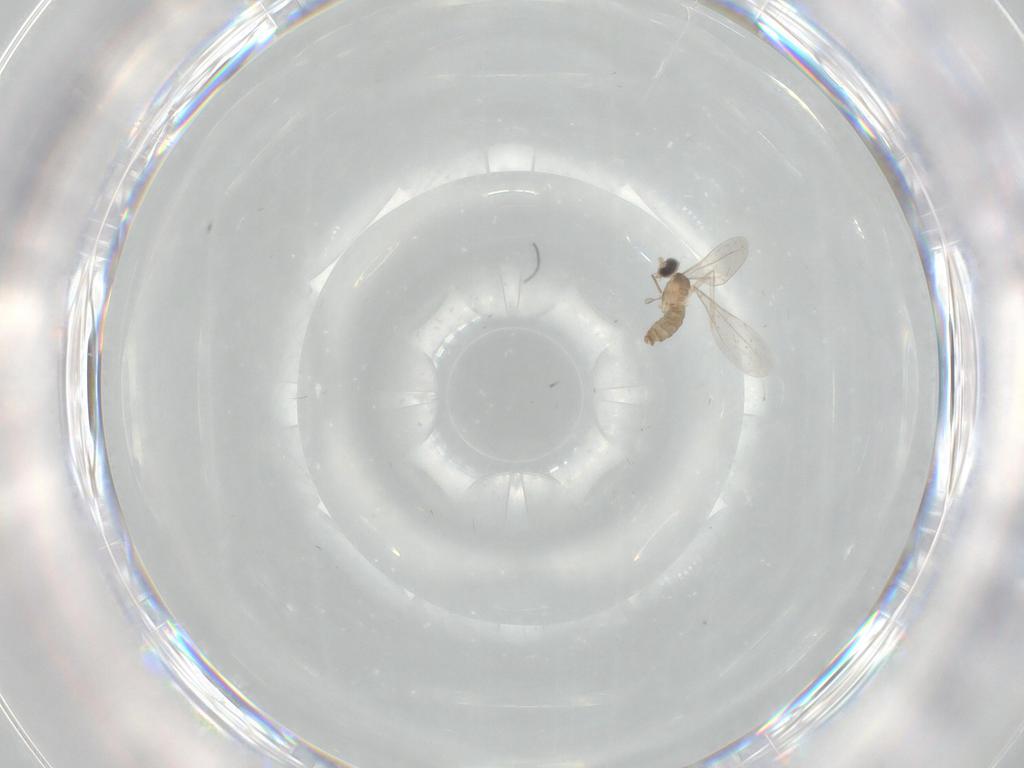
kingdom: Animalia
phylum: Arthropoda
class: Insecta
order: Diptera
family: Cecidomyiidae
